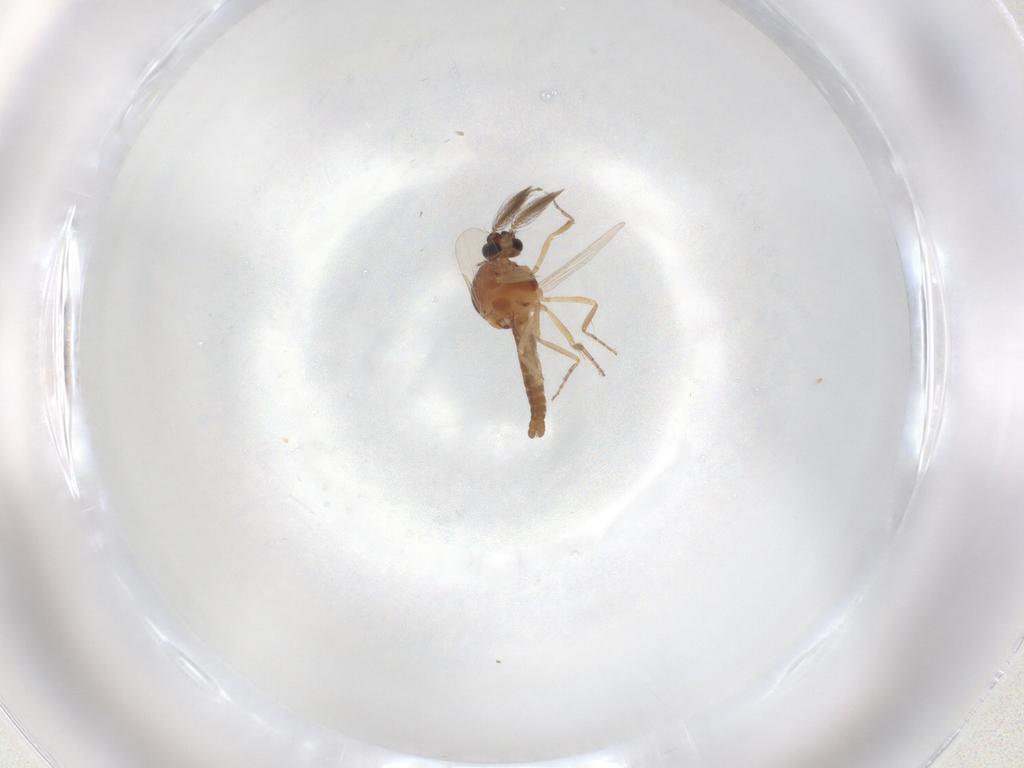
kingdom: Animalia
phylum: Arthropoda
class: Insecta
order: Diptera
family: Ceratopogonidae
